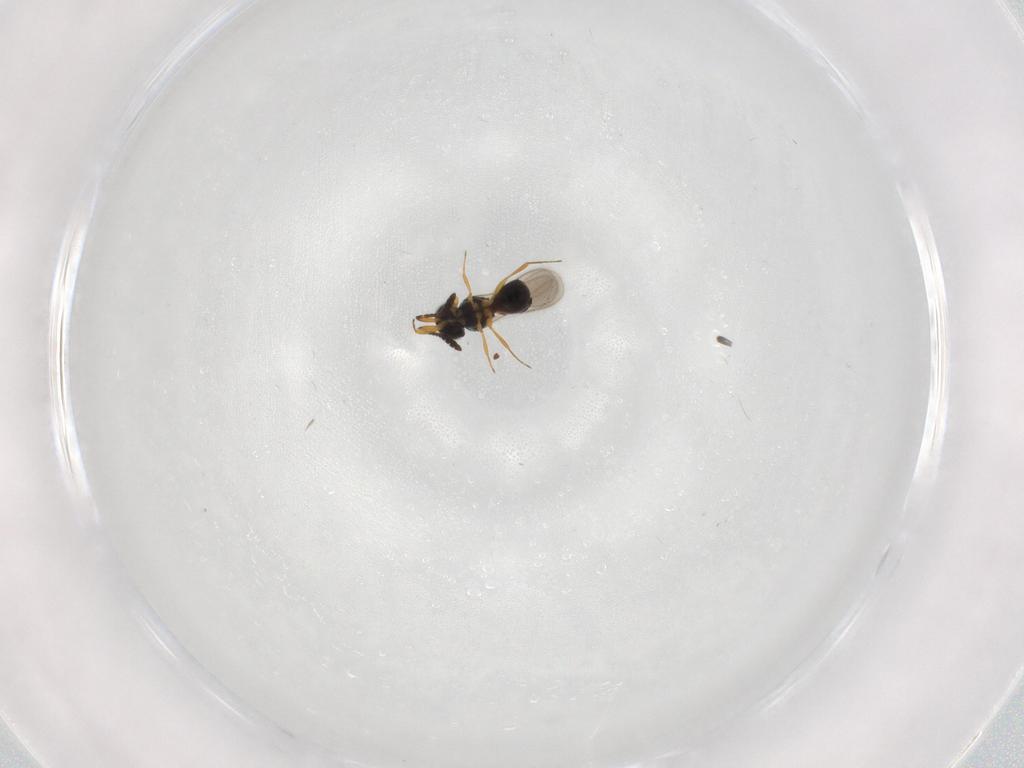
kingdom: Animalia
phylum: Arthropoda
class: Insecta
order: Hymenoptera
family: Scelionidae
